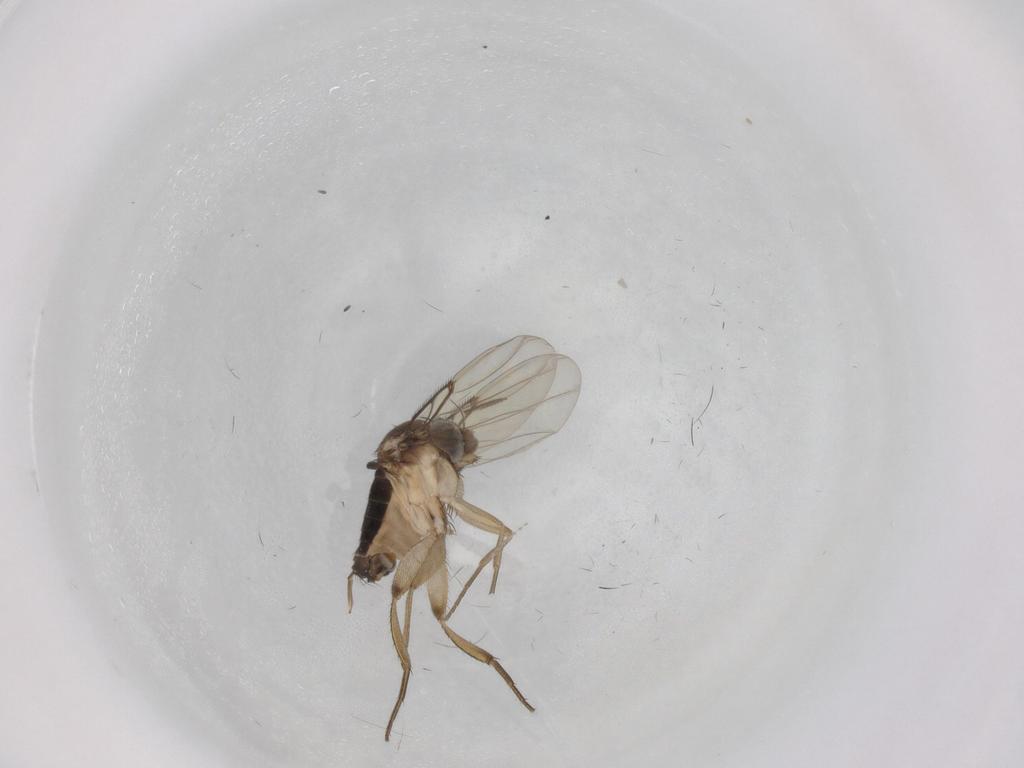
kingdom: Animalia
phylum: Arthropoda
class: Insecta
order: Diptera
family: Phoridae
